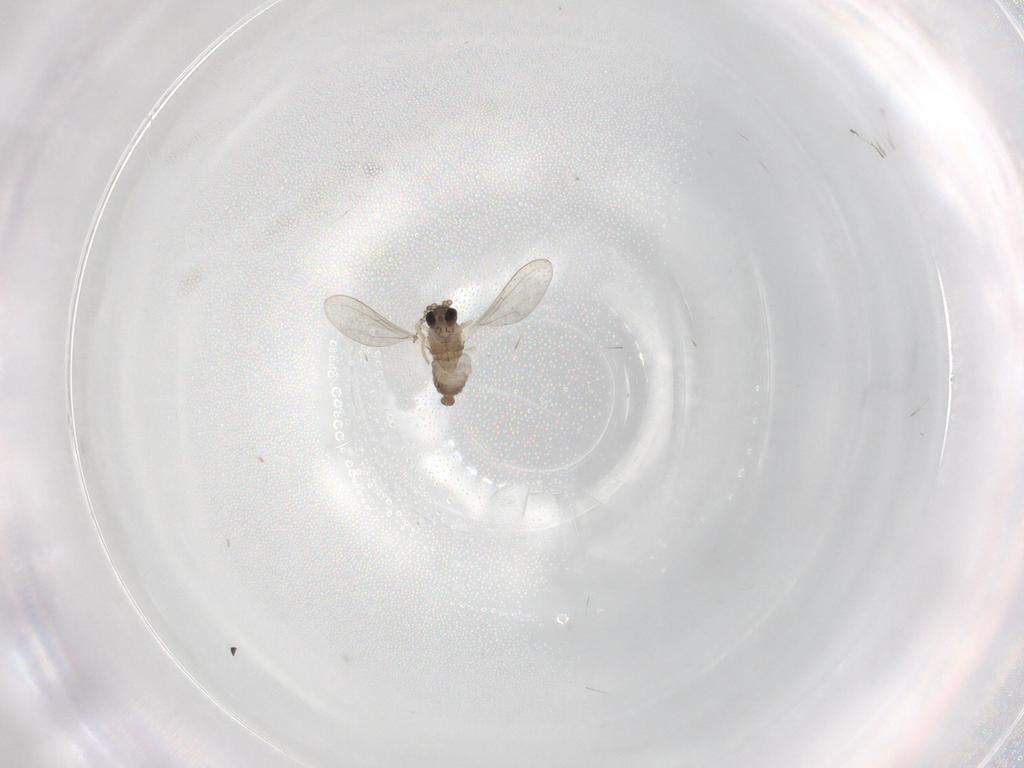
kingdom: Animalia
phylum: Arthropoda
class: Insecta
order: Diptera
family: Cecidomyiidae
